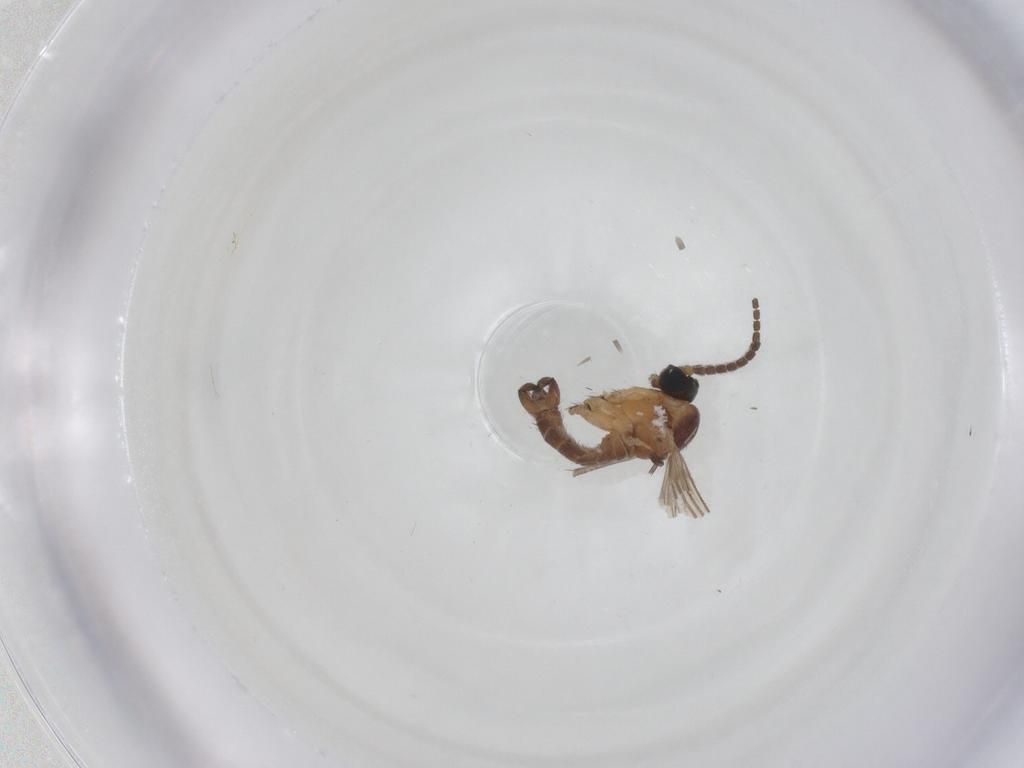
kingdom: Animalia
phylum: Arthropoda
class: Insecta
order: Diptera
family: Sciaridae
